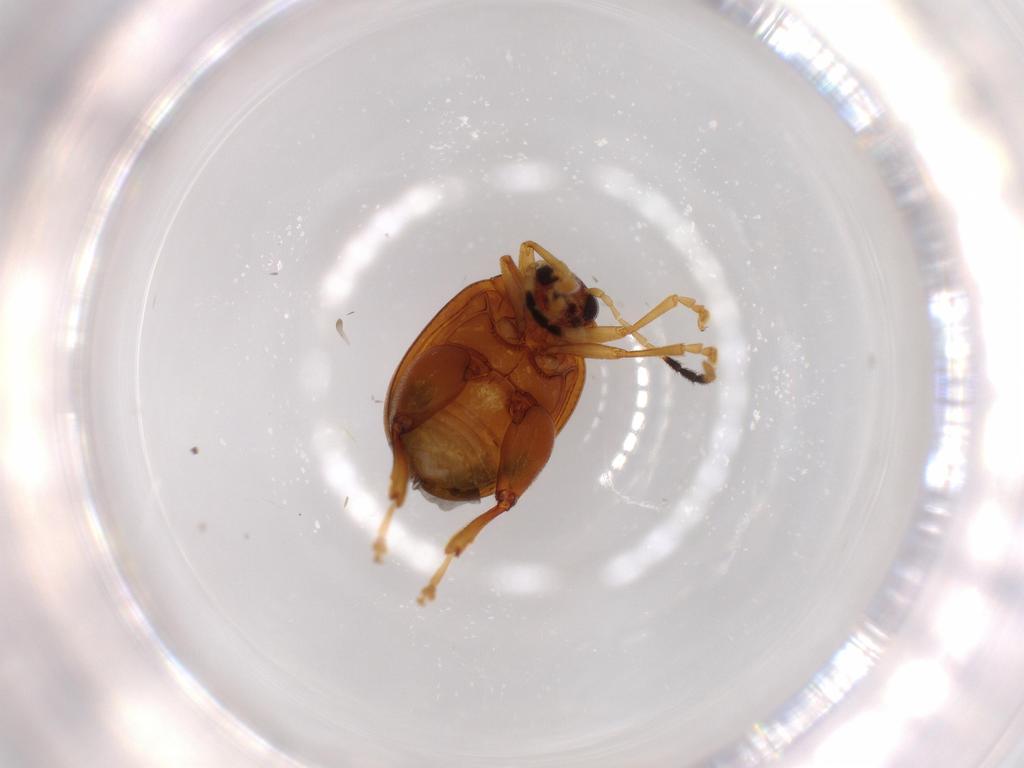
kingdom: Animalia
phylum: Arthropoda
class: Insecta
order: Coleoptera
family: Chrysomelidae
